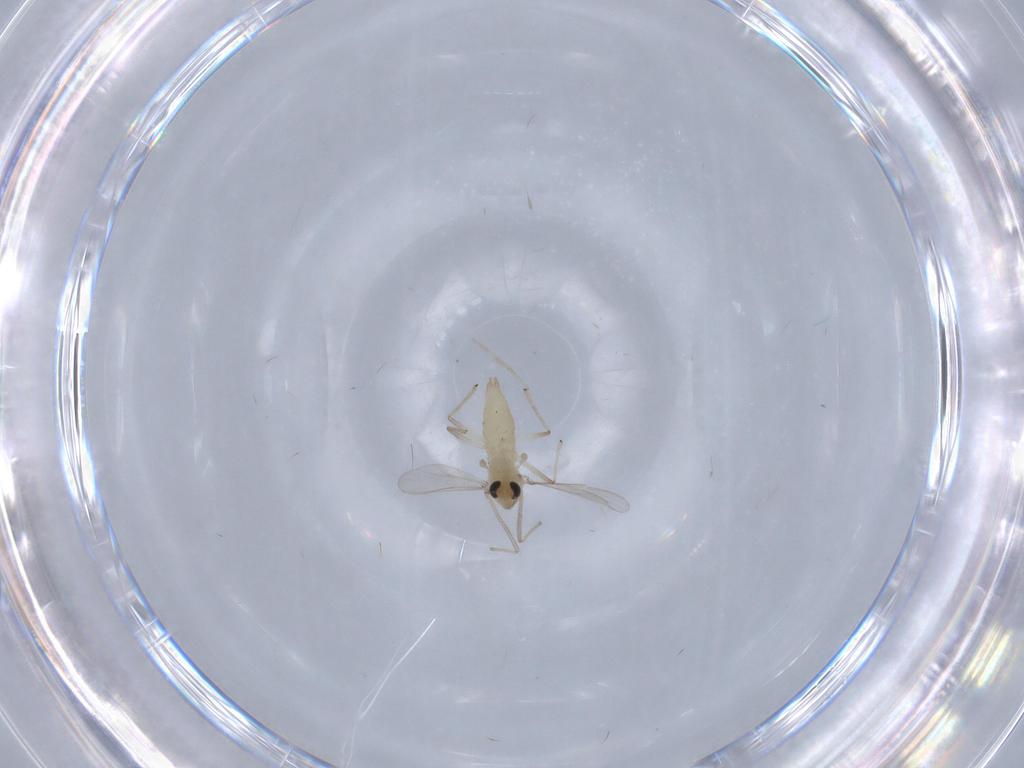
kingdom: Animalia
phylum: Arthropoda
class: Insecta
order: Diptera
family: Chironomidae
